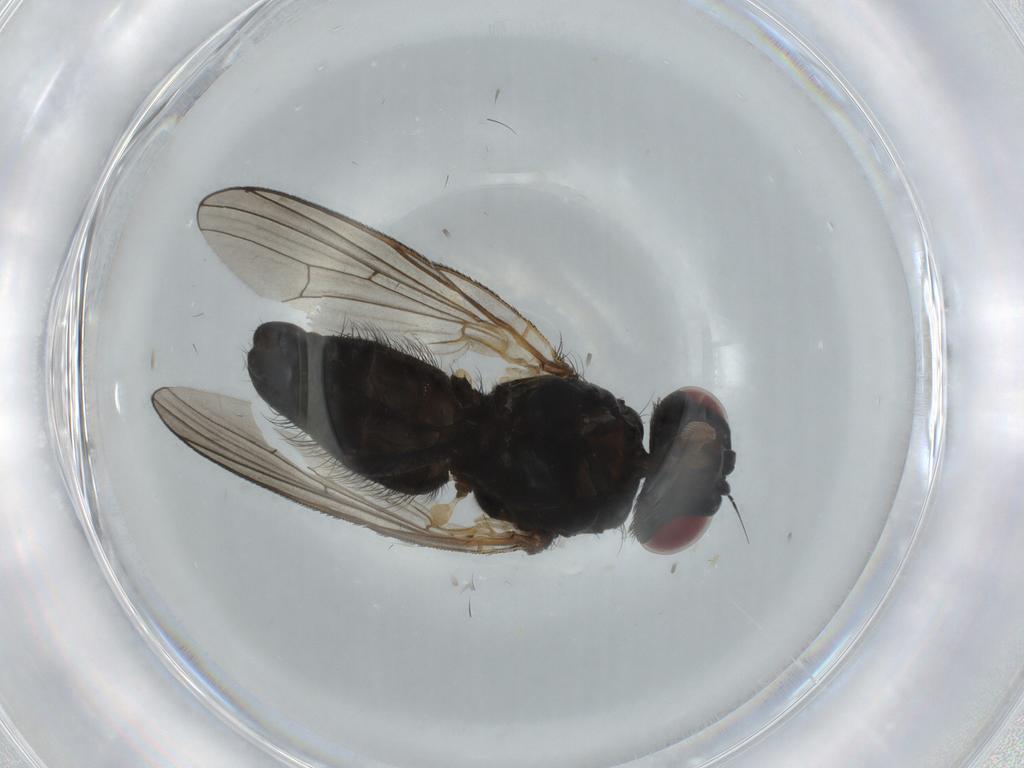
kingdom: Animalia
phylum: Arthropoda
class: Insecta
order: Diptera
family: Fannia
